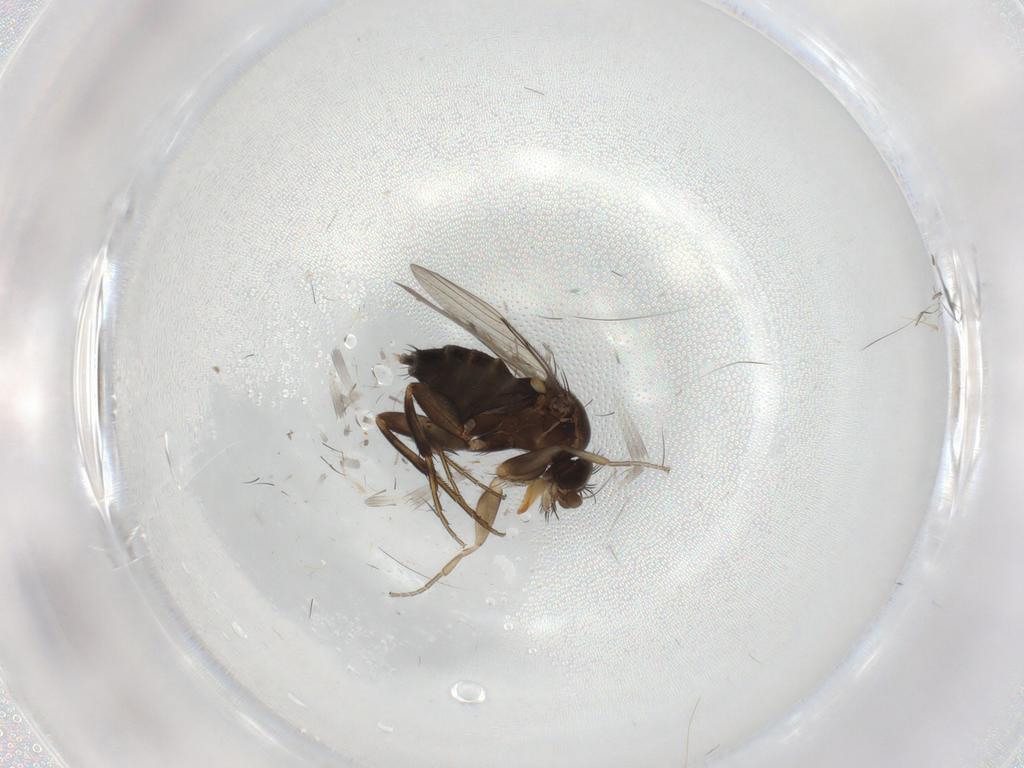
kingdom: Animalia
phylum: Arthropoda
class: Insecta
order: Diptera
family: Phoridae
